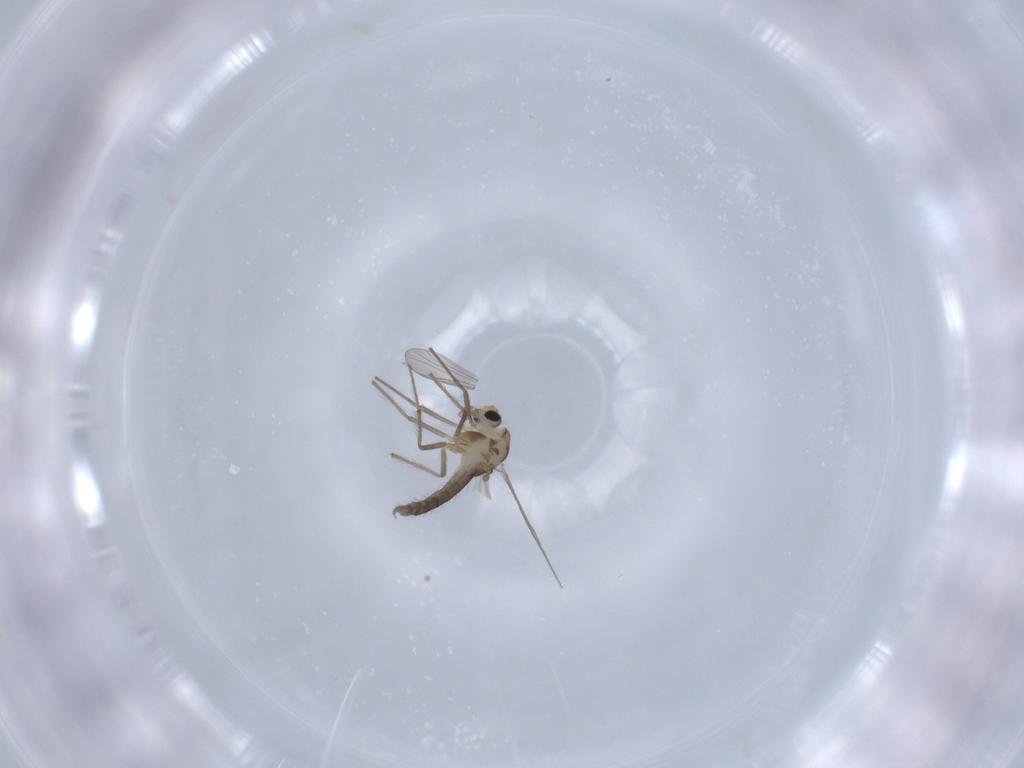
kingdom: Animalia
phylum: Arthropoda
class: Insecta
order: Diptera
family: Chironomidae
